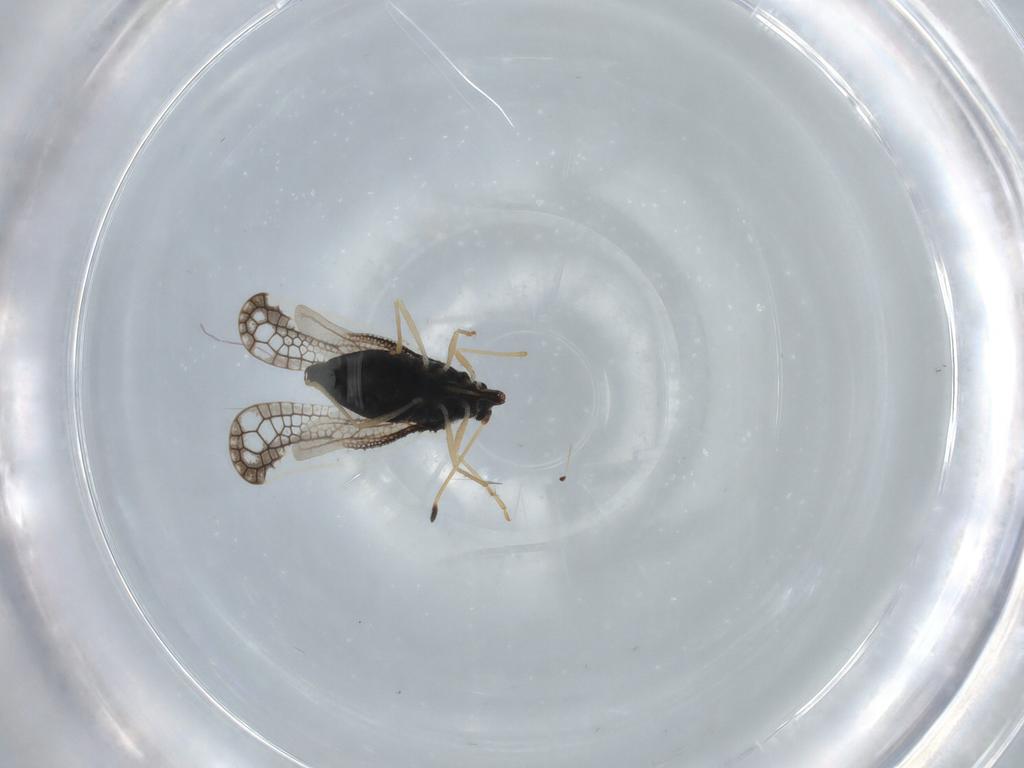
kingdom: Animalia
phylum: Arthropoda
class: Insecta
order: Hemiptera
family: Tingidae
